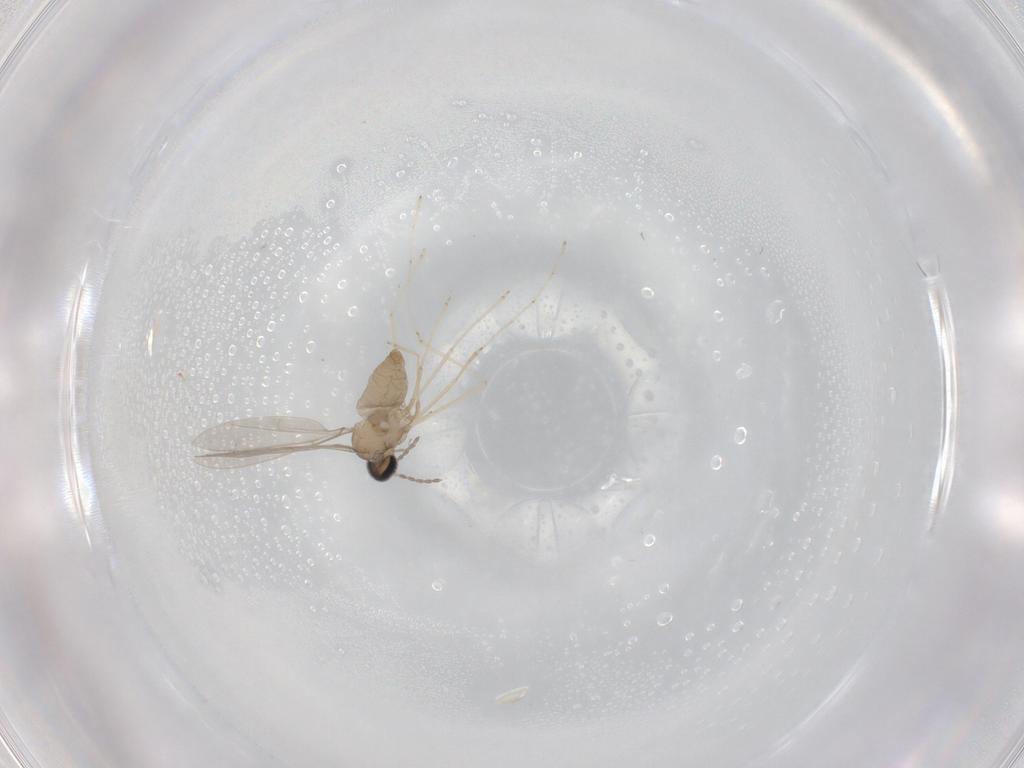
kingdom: Animalia
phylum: Arthropoda
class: Insecta
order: Diptera
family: Cecidomyiidae
